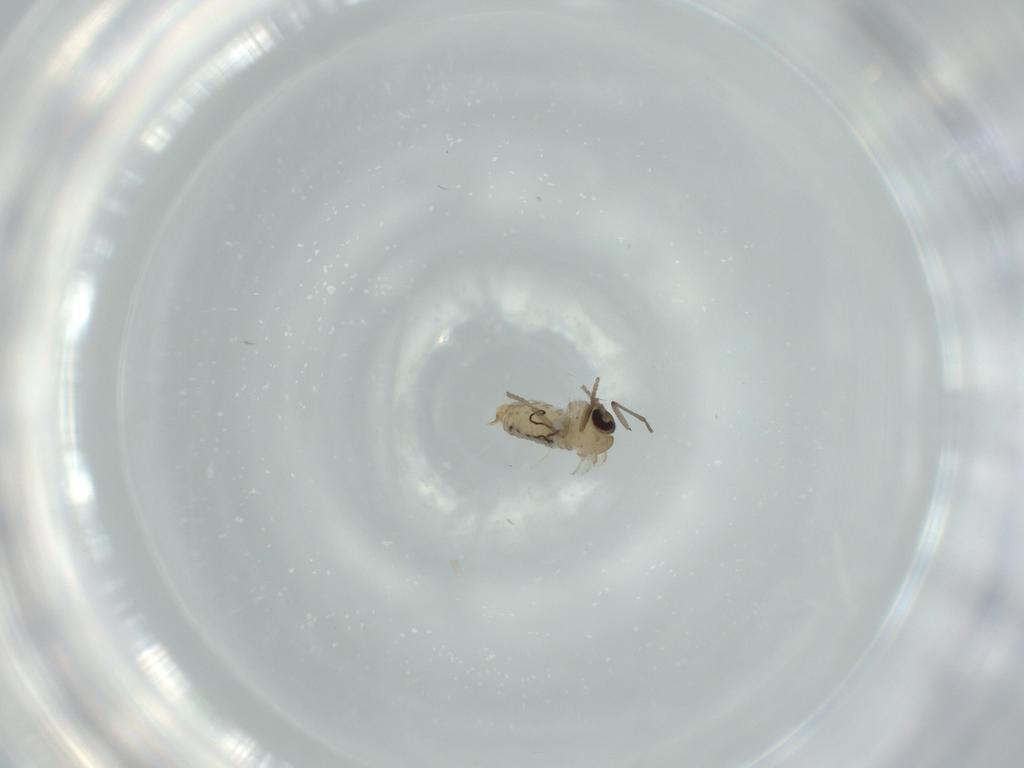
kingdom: Animalia
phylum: Arthropoda
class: Insecta
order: Diptera
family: Psychodidae
